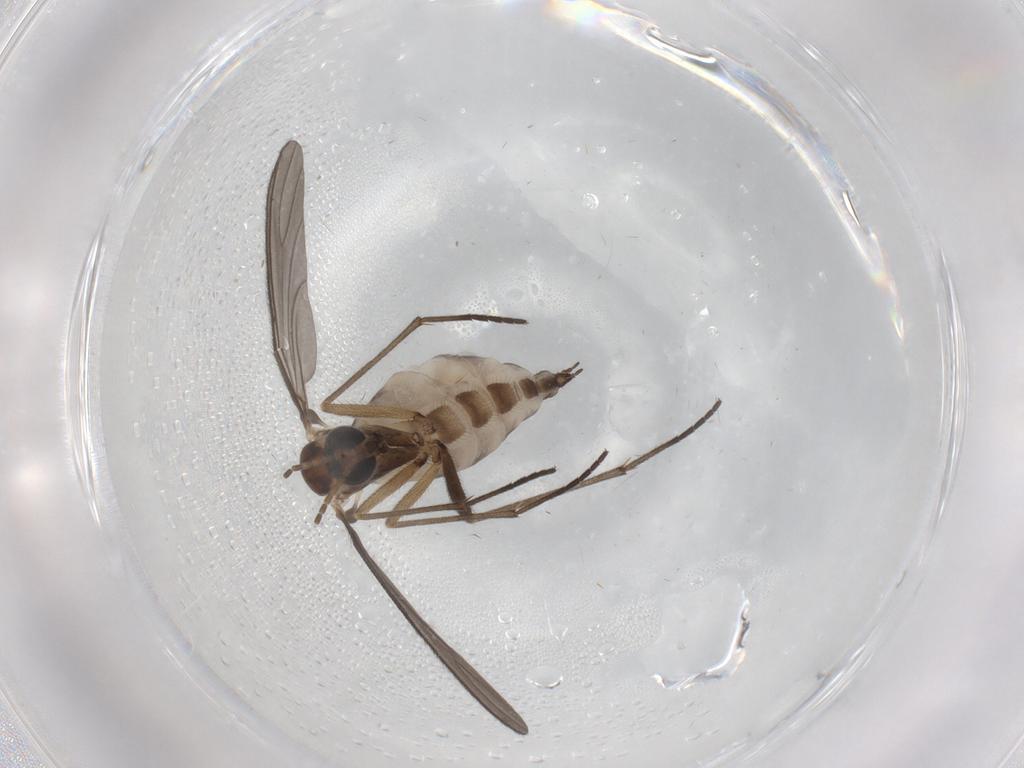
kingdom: Animalia
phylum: Arthropoda
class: Insecta
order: Diptera
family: Sciaridae
